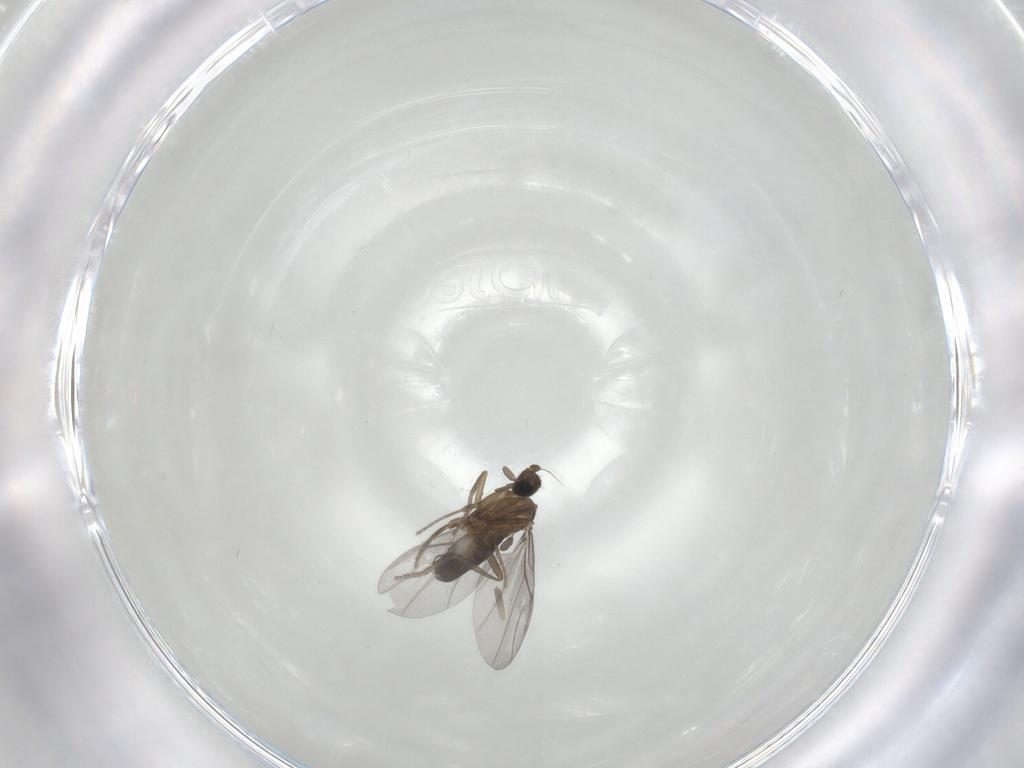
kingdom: Animalia
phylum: Arthropoda
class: Insecta
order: Diptera
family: Phoridae
